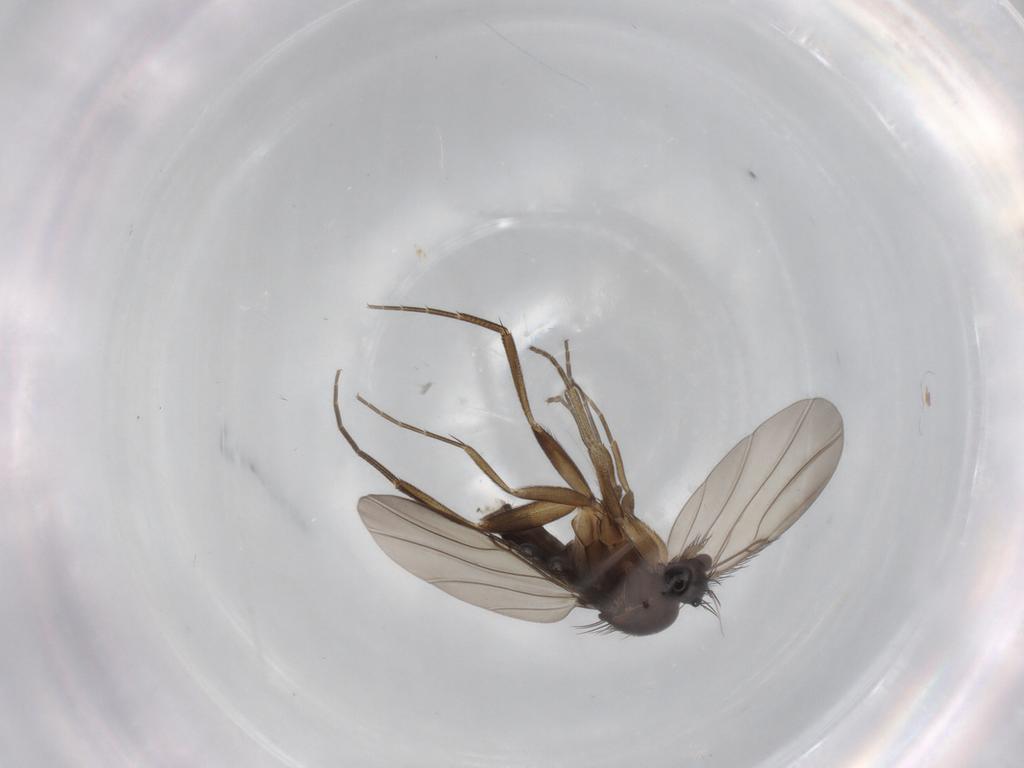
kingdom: Animalia
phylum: Arthropoda
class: Insecta
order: Diptera
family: Phoridae
